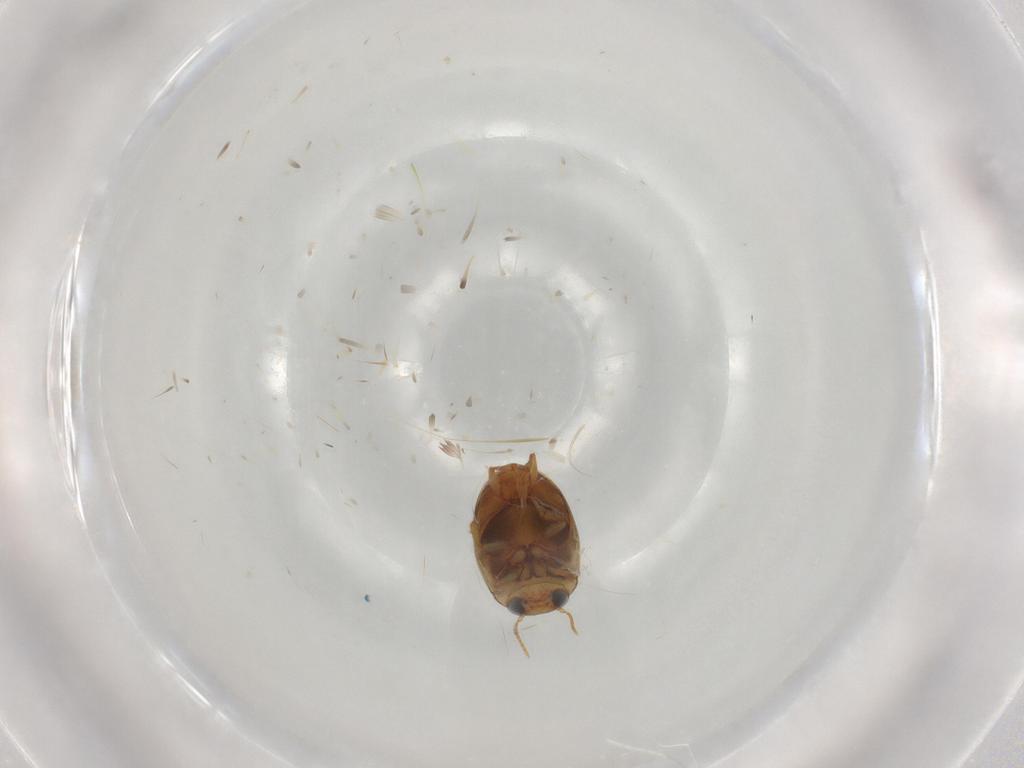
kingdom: Animalia
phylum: Arthropoda
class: Insecta
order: Coleoptera
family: Dytiscidae
